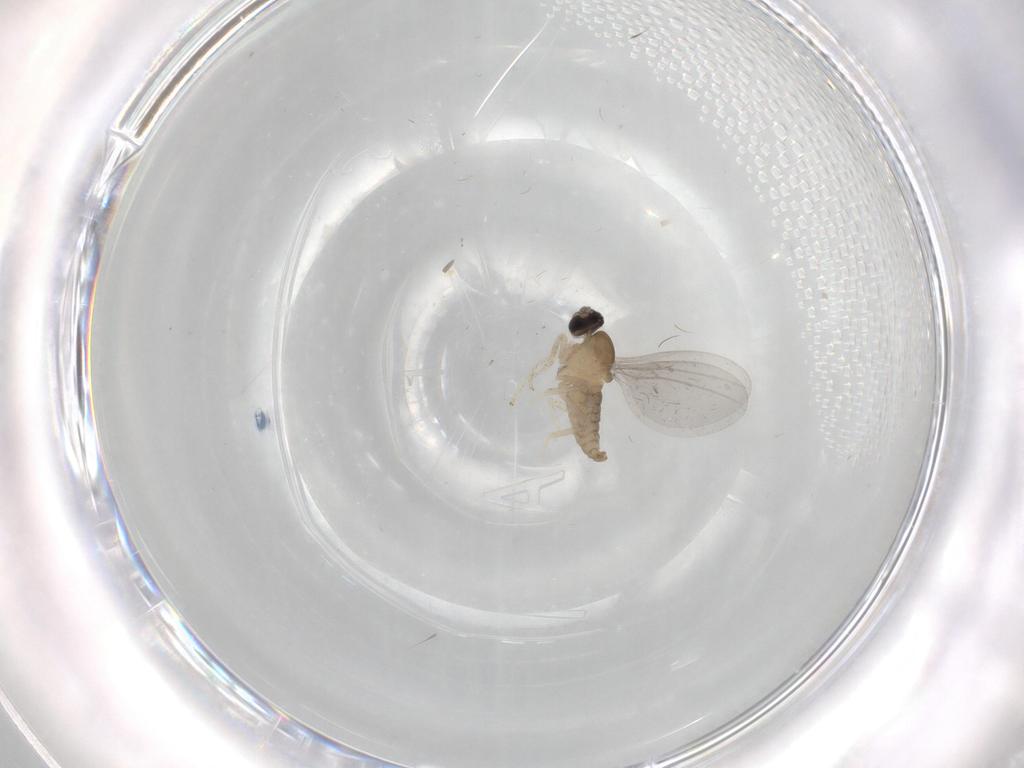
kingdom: Animalia
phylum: Arthropoda
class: Insecta
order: Diptera
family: Cecidomyiidae
